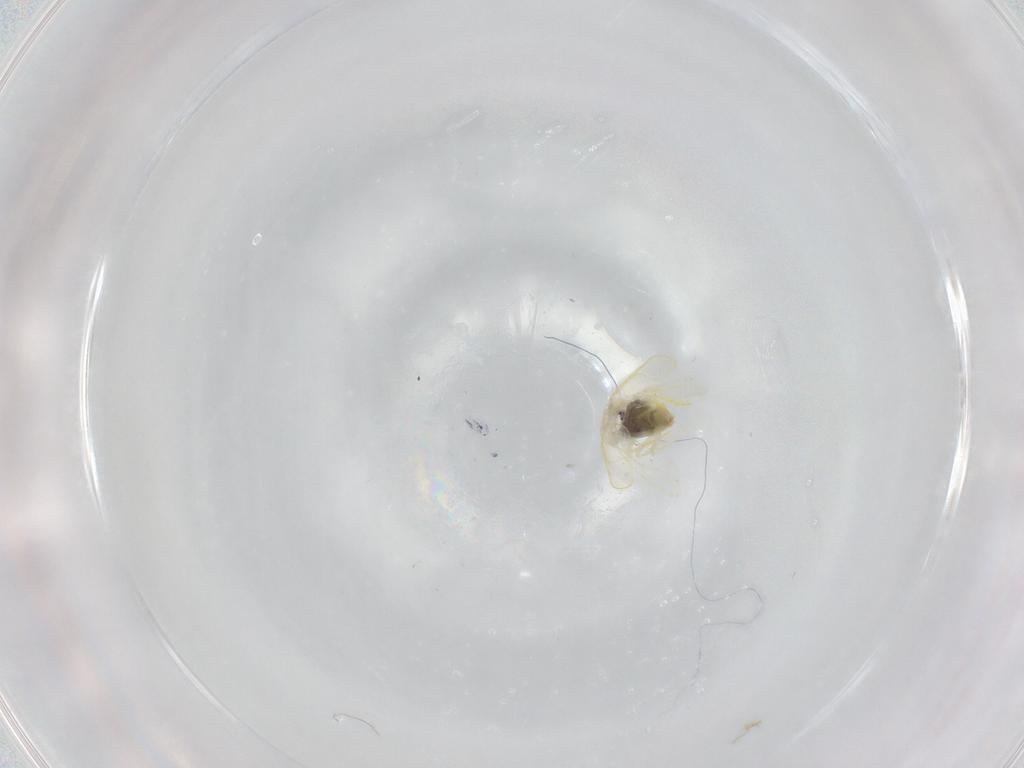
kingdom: Animalia
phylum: Arthropoda
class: Insecta
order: Hemiptera
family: Aleyrodidae
